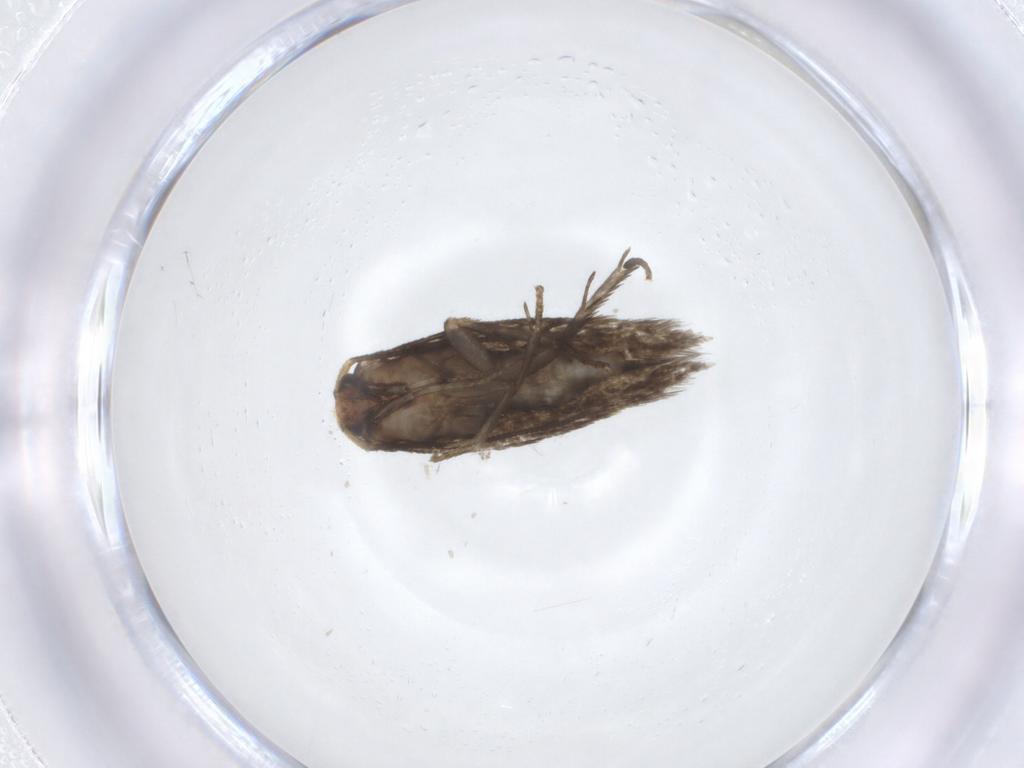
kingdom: Animalia
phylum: Arthropoda
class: Insecta
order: Lepidoptera
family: Nepticulidae
